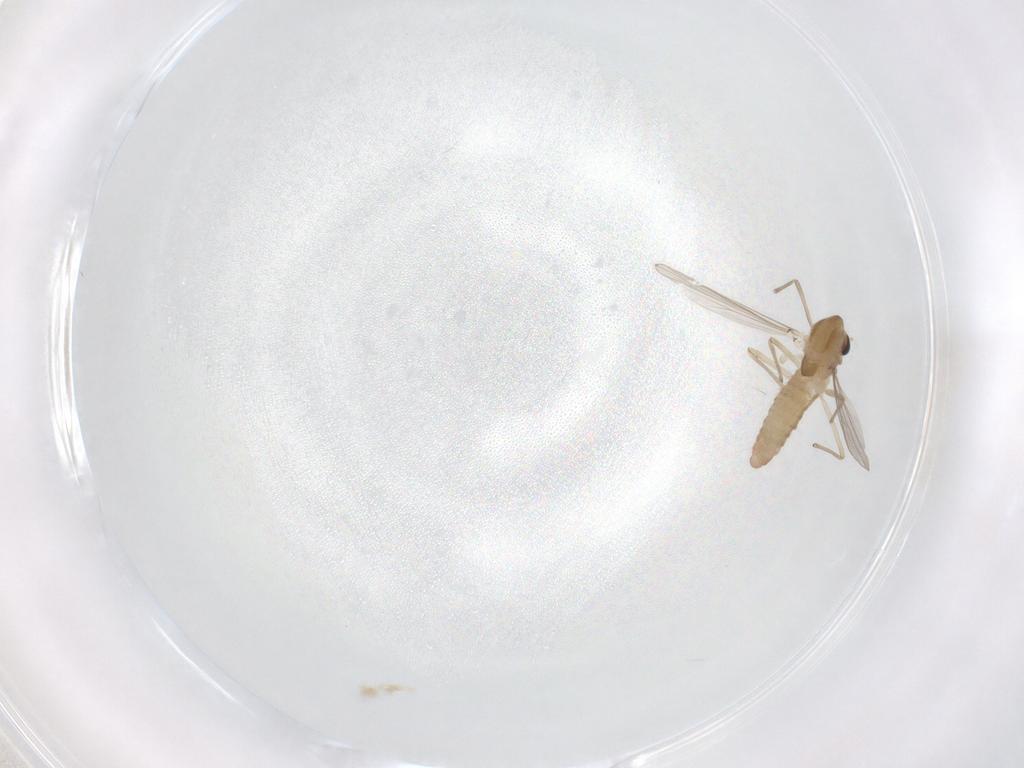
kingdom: Animalia
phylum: Arthropoda
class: Insecta
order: Diptera
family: Chironomidae
